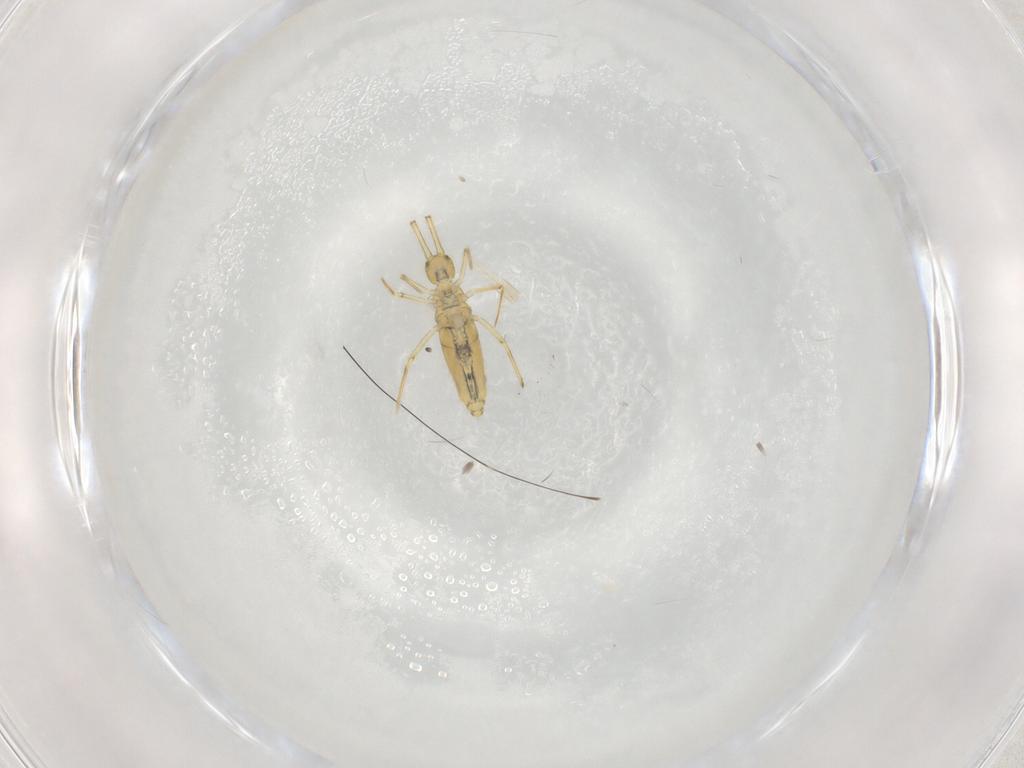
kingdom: Animalia
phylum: Arthropoda
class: Collembola
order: Entomobryomorpha
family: Paronellidae
